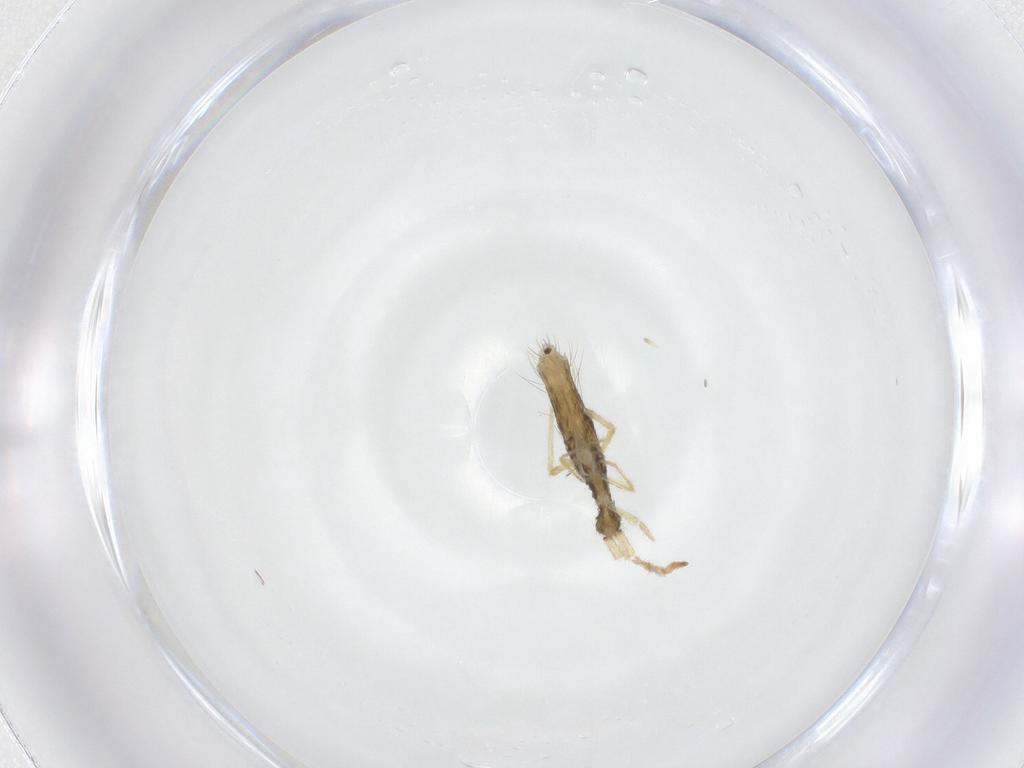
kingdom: Animalia
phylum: Arthropoda
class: Collembola
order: Entomobryomorpha
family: Entomobryidae
